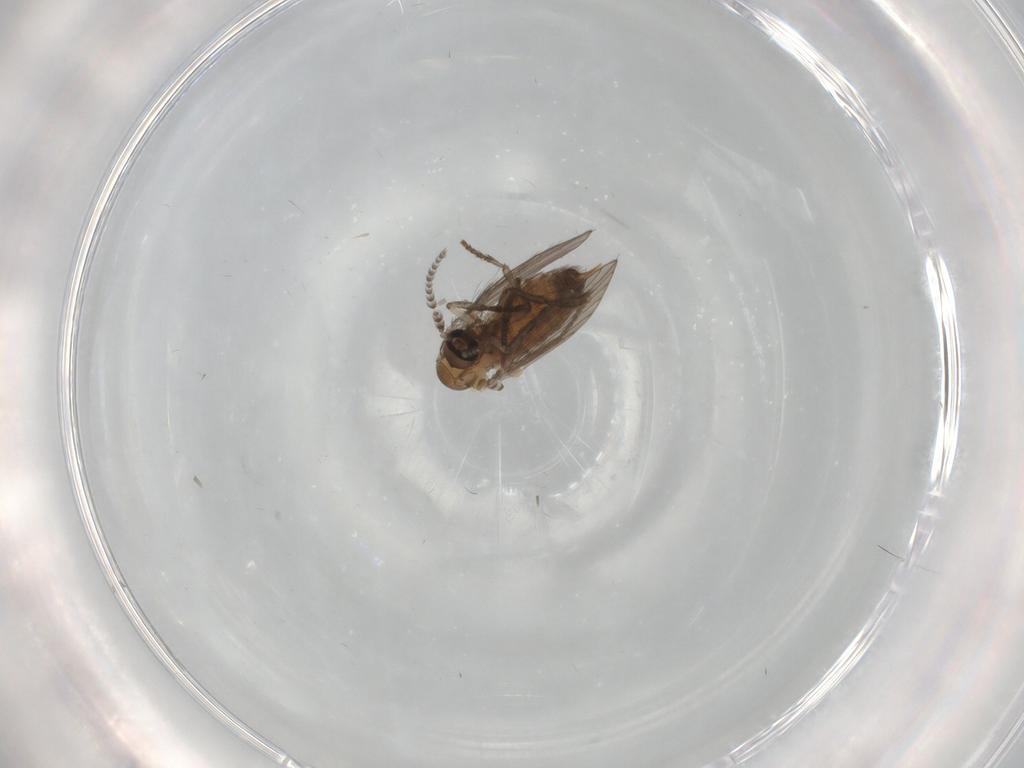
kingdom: Animalia
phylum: Arthropoda
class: Insecta
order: Diptera
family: Psychodidae
